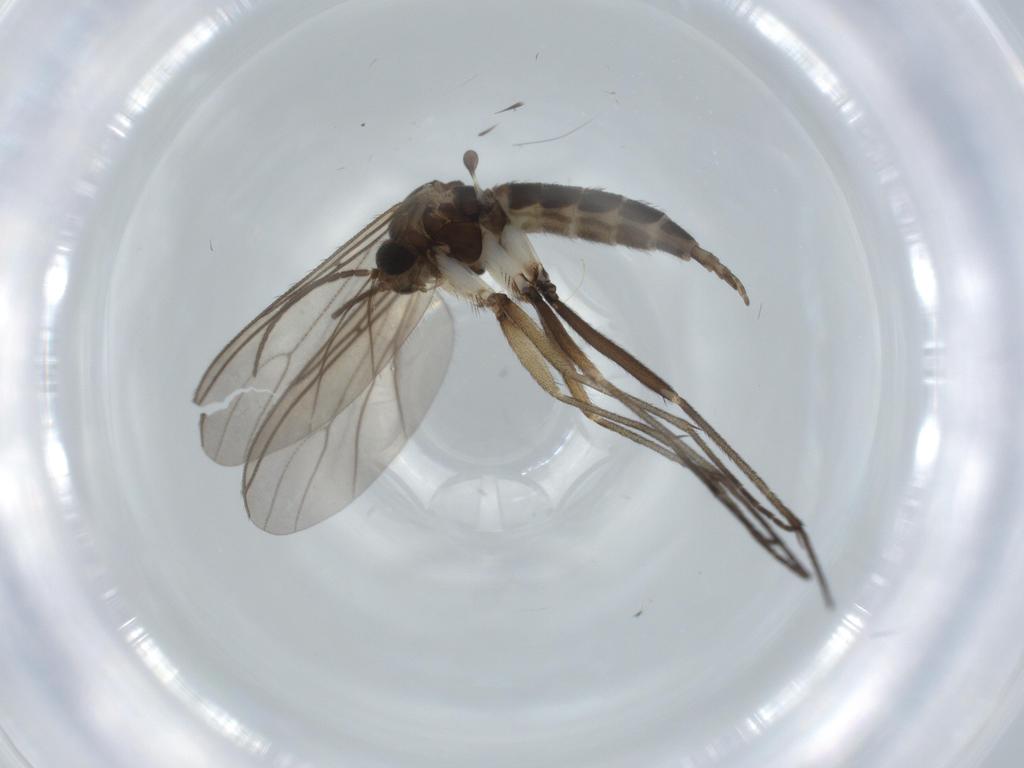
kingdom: Animalia
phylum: Arthropoda
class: Insecta
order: Diptera
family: Sciaridae
